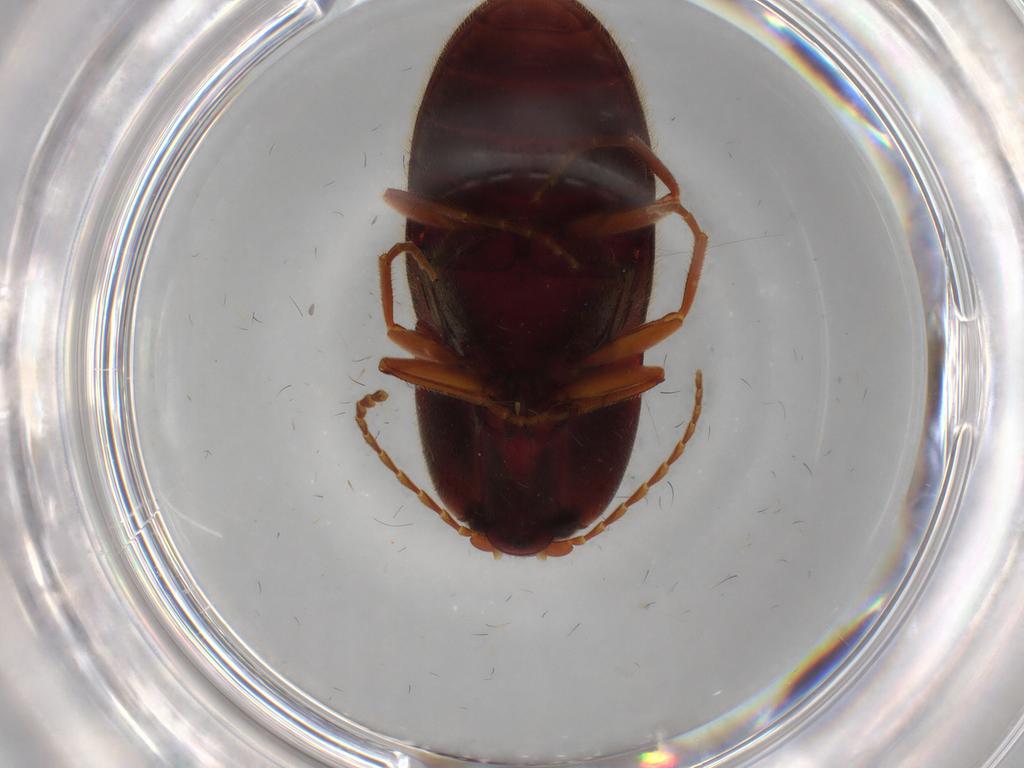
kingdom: Animalia
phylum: Arthropoda
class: Insecta
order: Coleoptera
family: Elateridae
